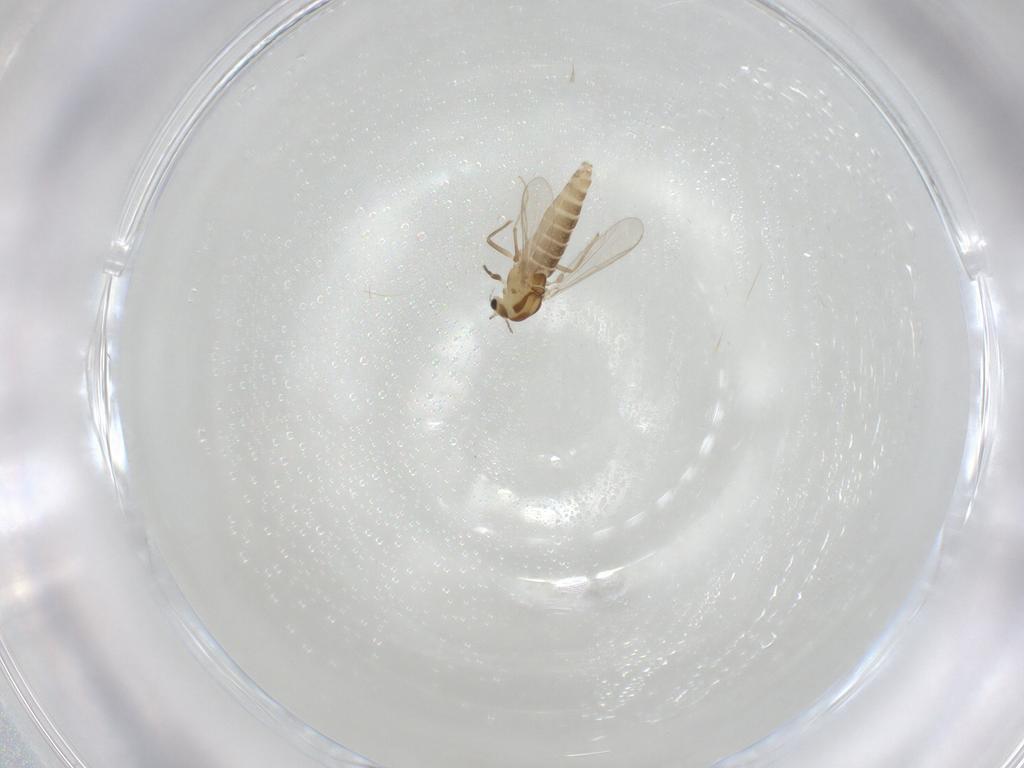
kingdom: Animalia
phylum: Arthropoda
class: Insecta
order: Diptera
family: Chironomidae
